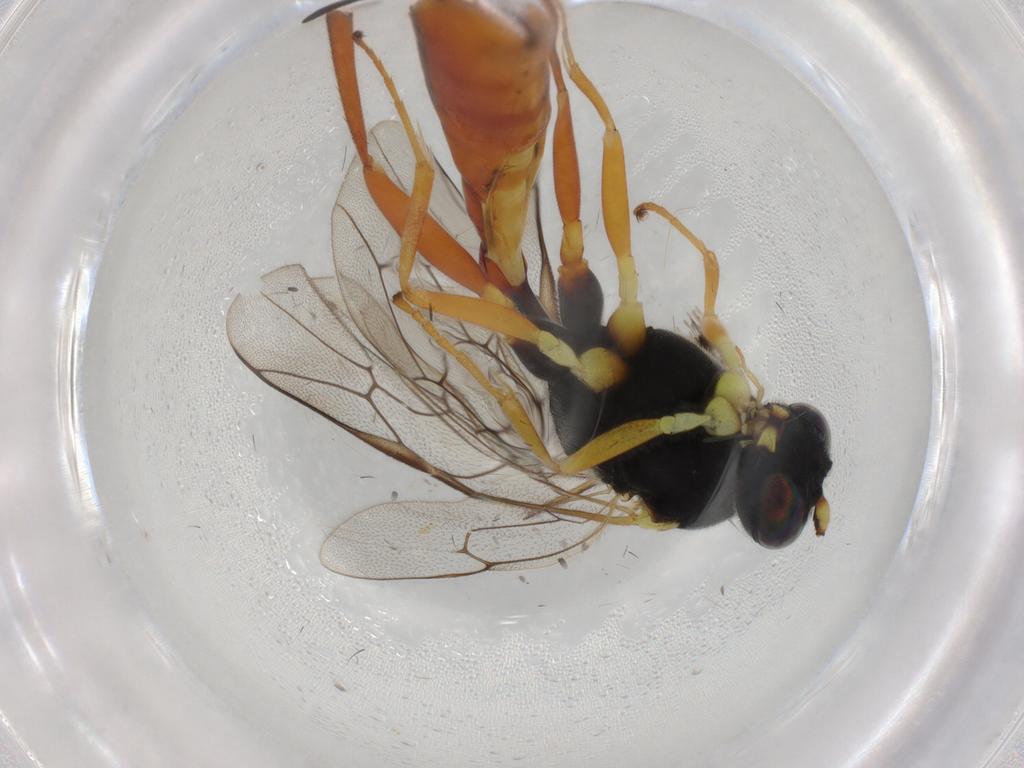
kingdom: Animalia
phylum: Arthropoda
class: Insecta
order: Hymenoptera
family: Ichneumonidae
